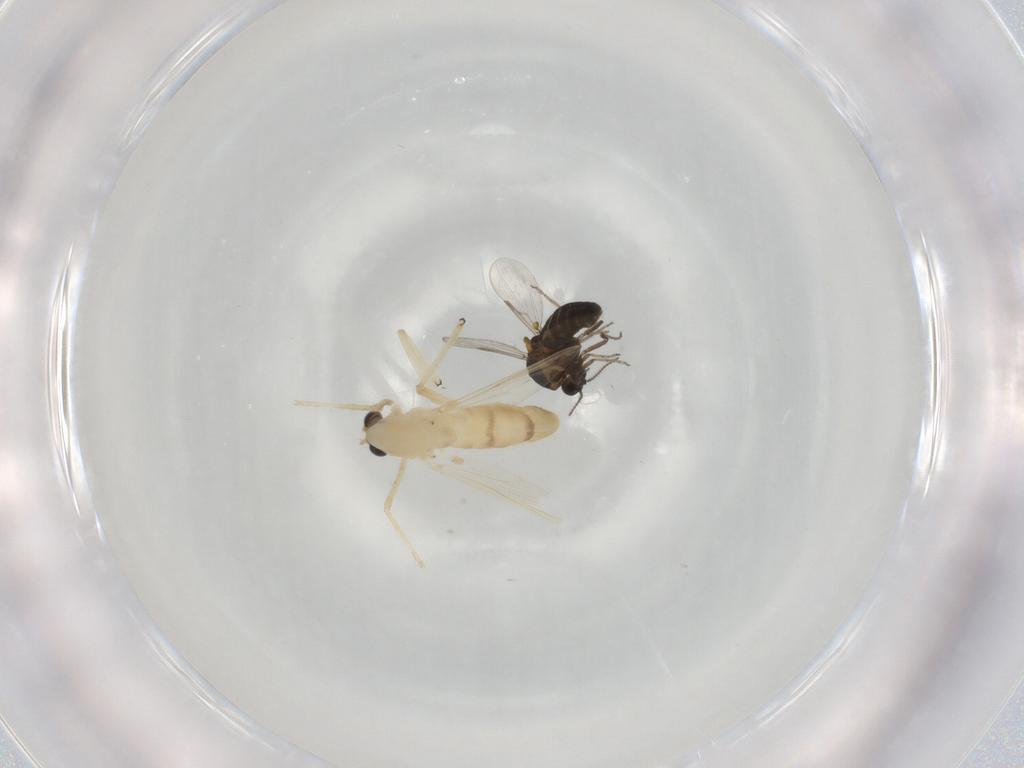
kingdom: Animalia
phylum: Arthropoda
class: Insecta
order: Diptera
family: Chironomidae
